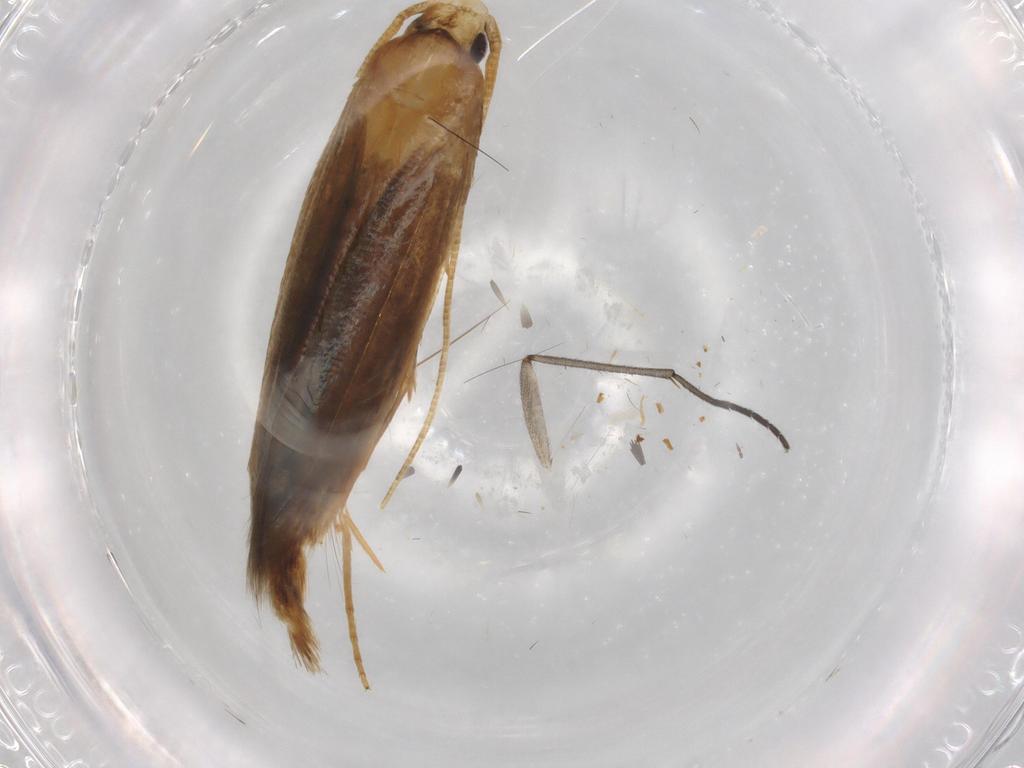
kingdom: Animalia
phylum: Arthropoda
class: Insecta
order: Lepidoptera
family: Tineidae
